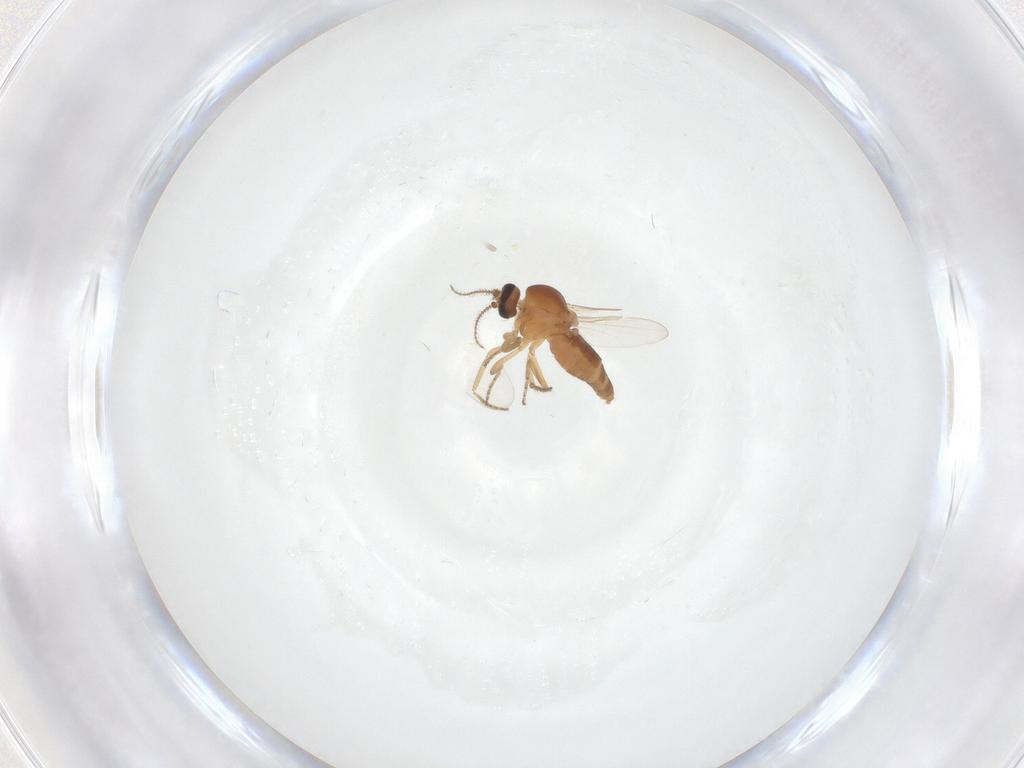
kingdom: Animalia
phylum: Arthropoda
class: Insecta
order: Diptera
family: Ceratopogonidae
